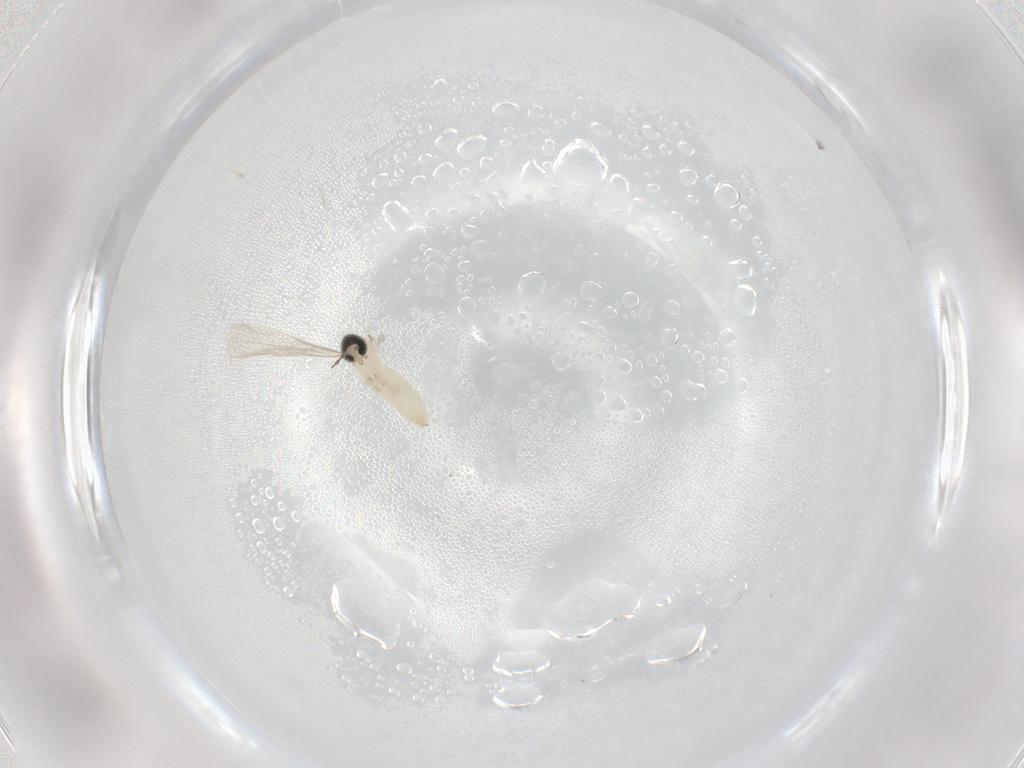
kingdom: Animalia
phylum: Arthropoda
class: Insecta
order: Diptera
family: Cecidomyiidae
